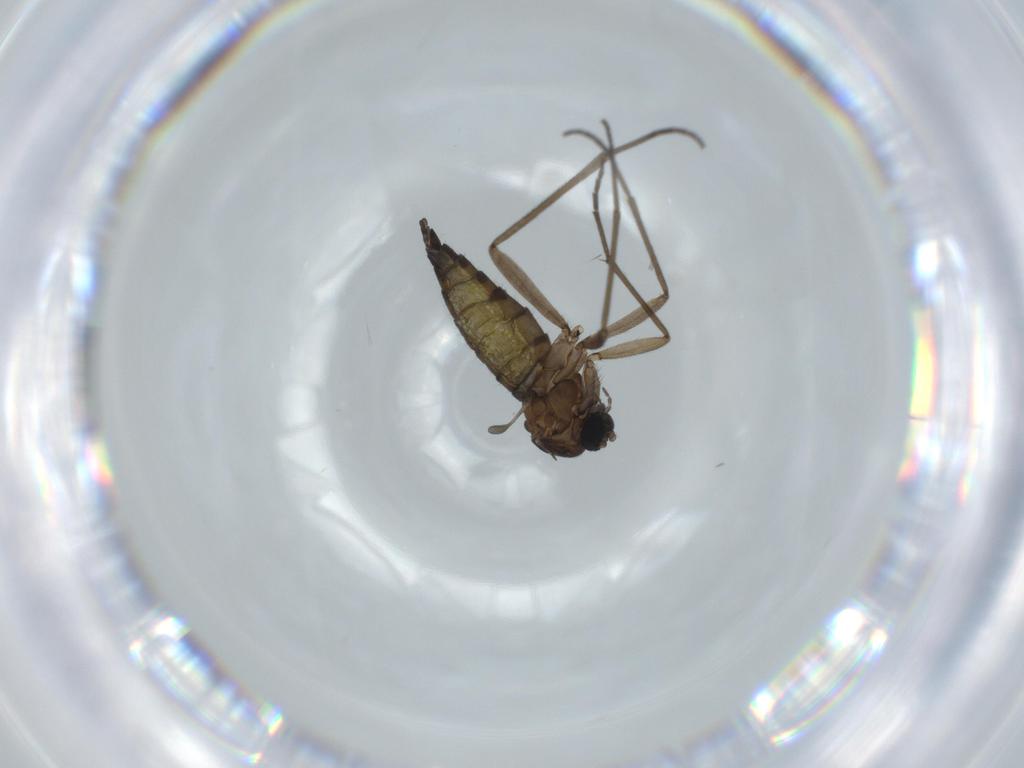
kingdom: Animalia
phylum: Arthropoda
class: Insecta
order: Diptera
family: Sciaridae
